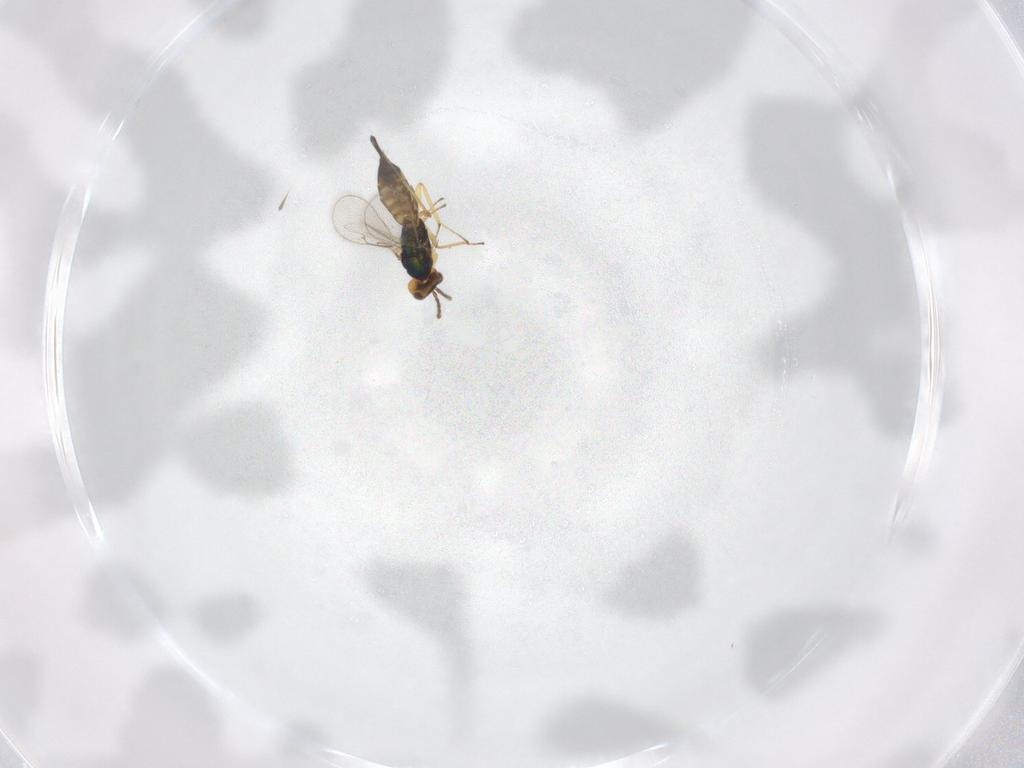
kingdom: Animalia
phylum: Arthropoda
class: Insecta
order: Hymenoptera
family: Eulophidae
